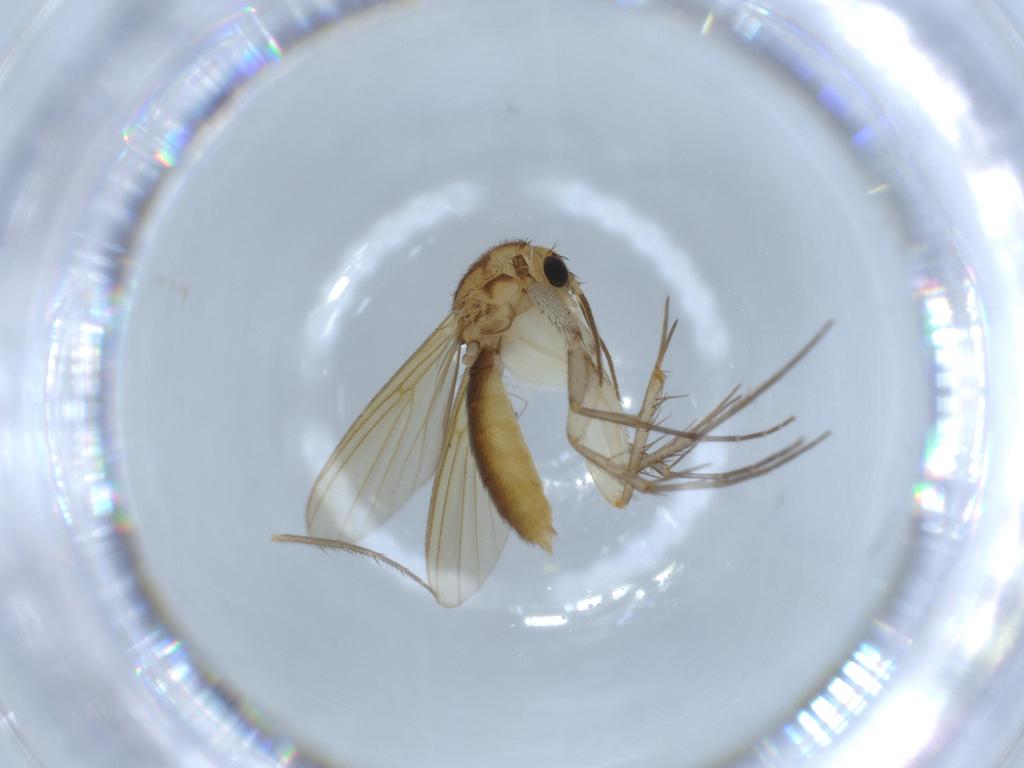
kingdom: Animalia
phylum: Arthropoda
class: Insecta
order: Diptera
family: Mycetophilidae
